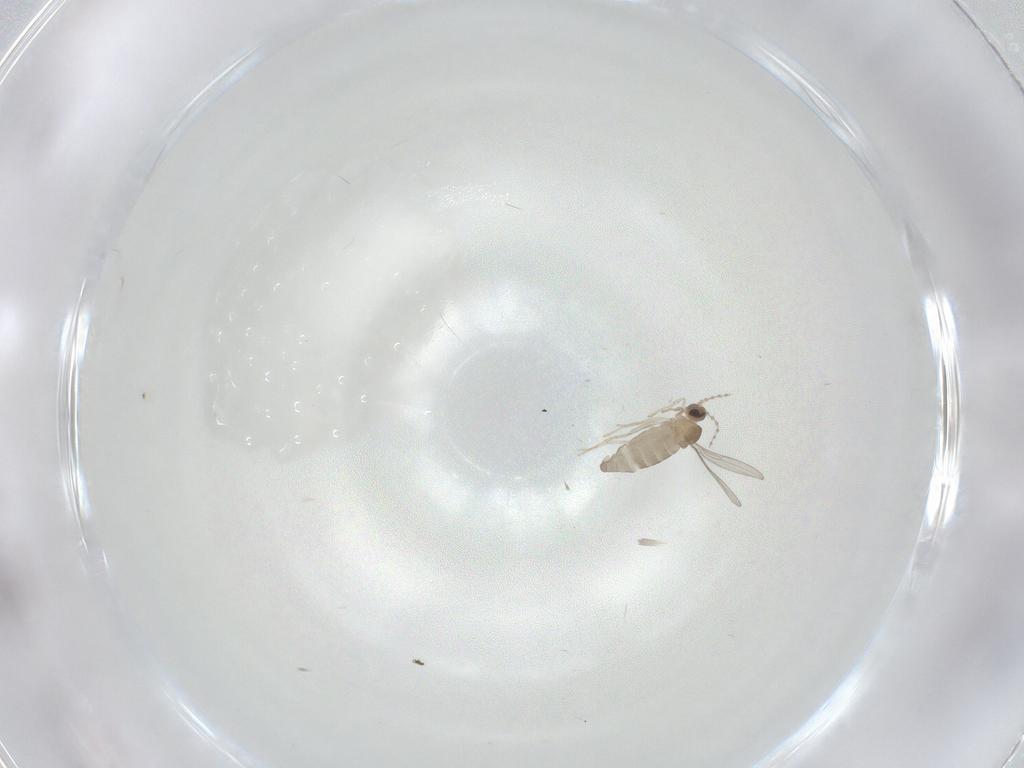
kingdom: Animalia
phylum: Arthropoda
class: Insecta
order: Diptera
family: Cecidomyiidae
